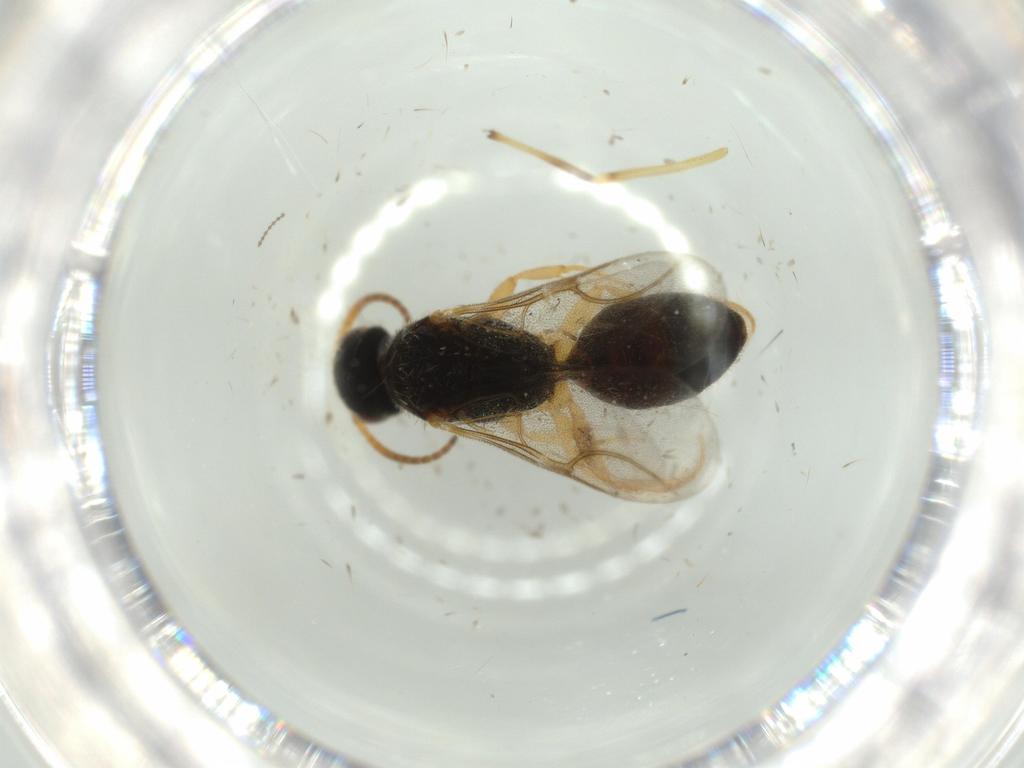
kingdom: Animalia
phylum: Arthropoda
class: Insecta
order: Hymenoptera
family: Bethylidae
